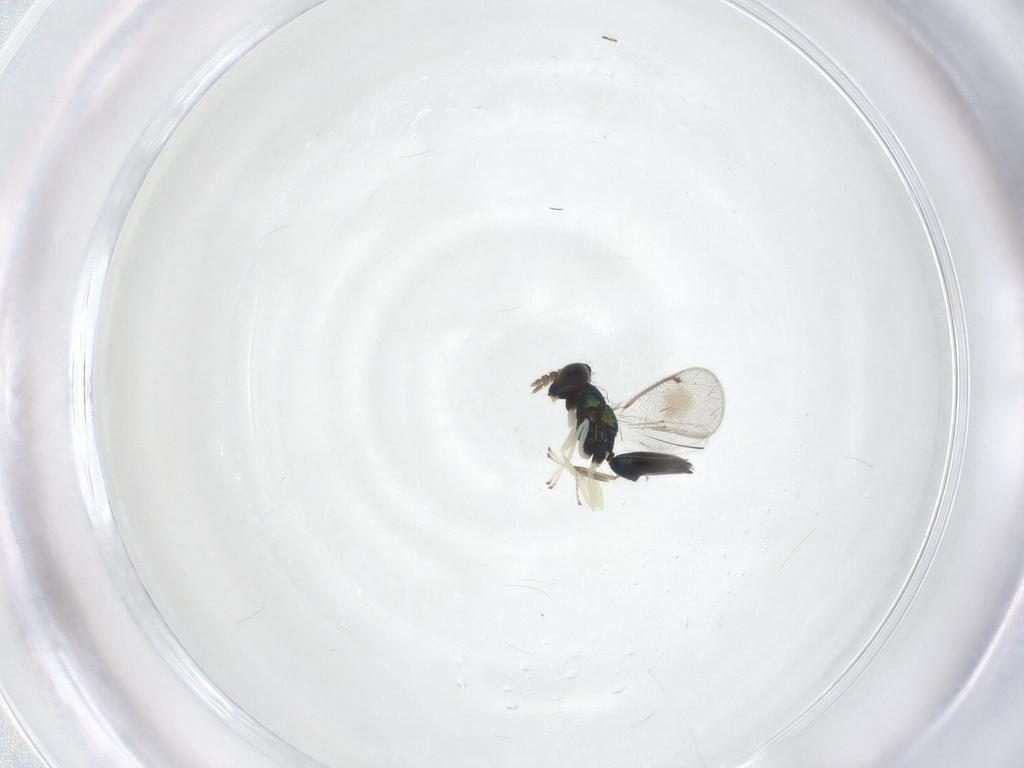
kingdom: Animalia
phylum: Arthropoda
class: Insecta
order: Hymenoptera
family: Eulophidae
